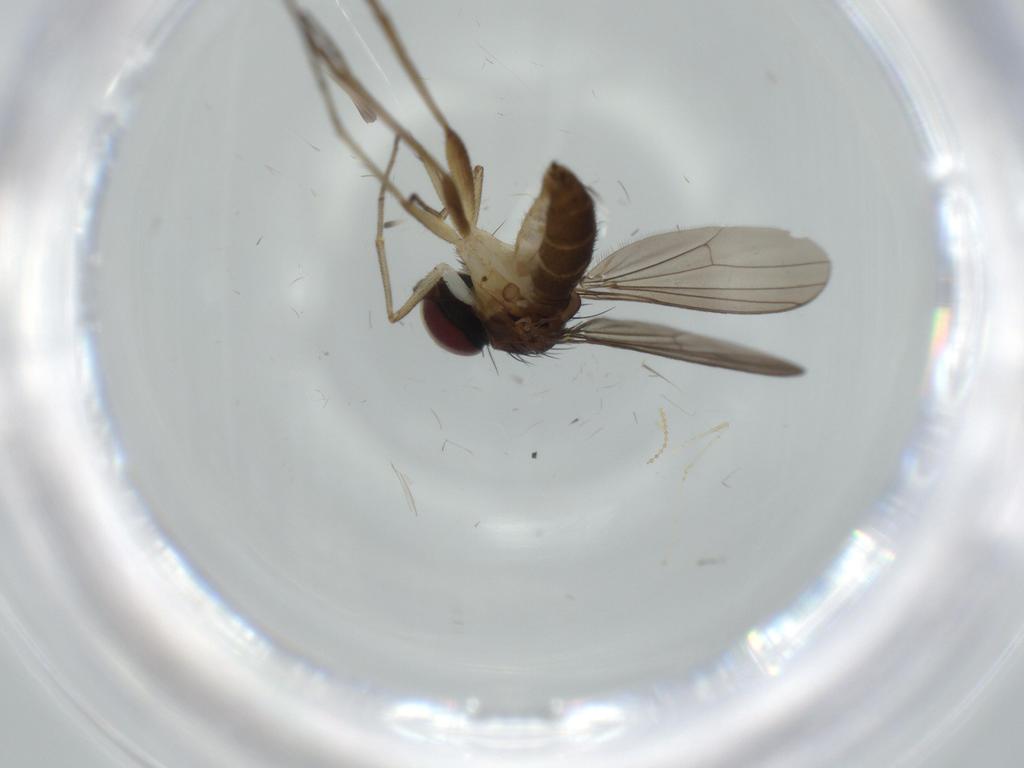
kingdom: Animalia
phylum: Arthropoda
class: Insecta
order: Diptera
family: Dolichopodidae
